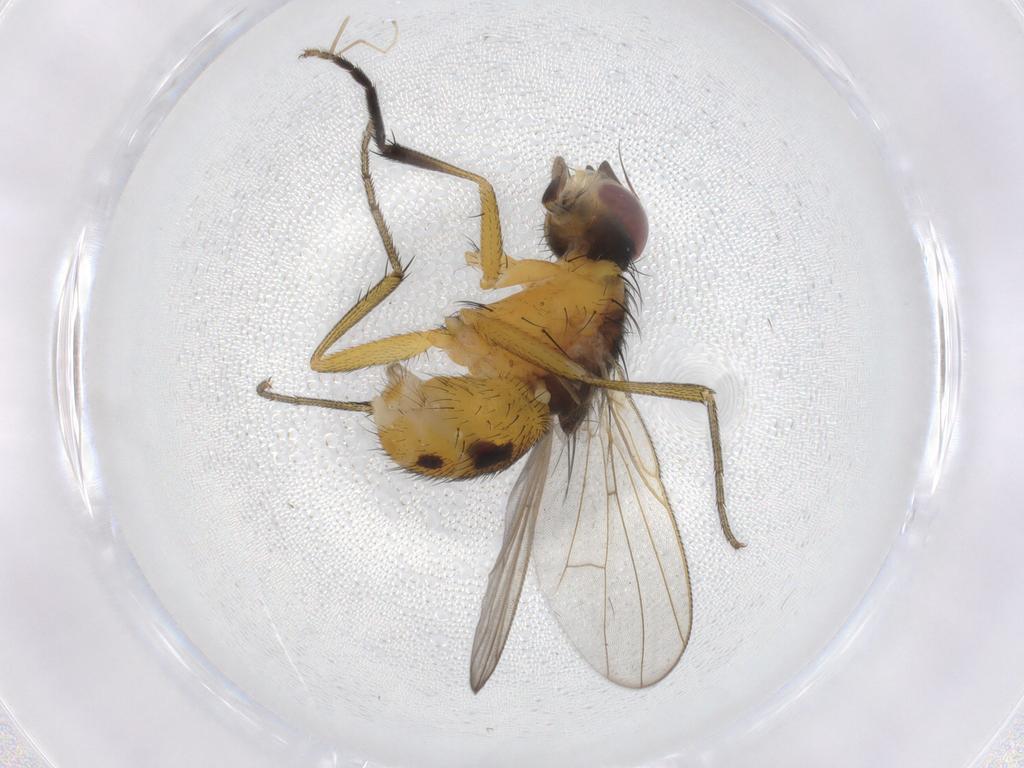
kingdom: Animalia
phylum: Arthropoda
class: Insecta
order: Diptera
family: Muscidae
